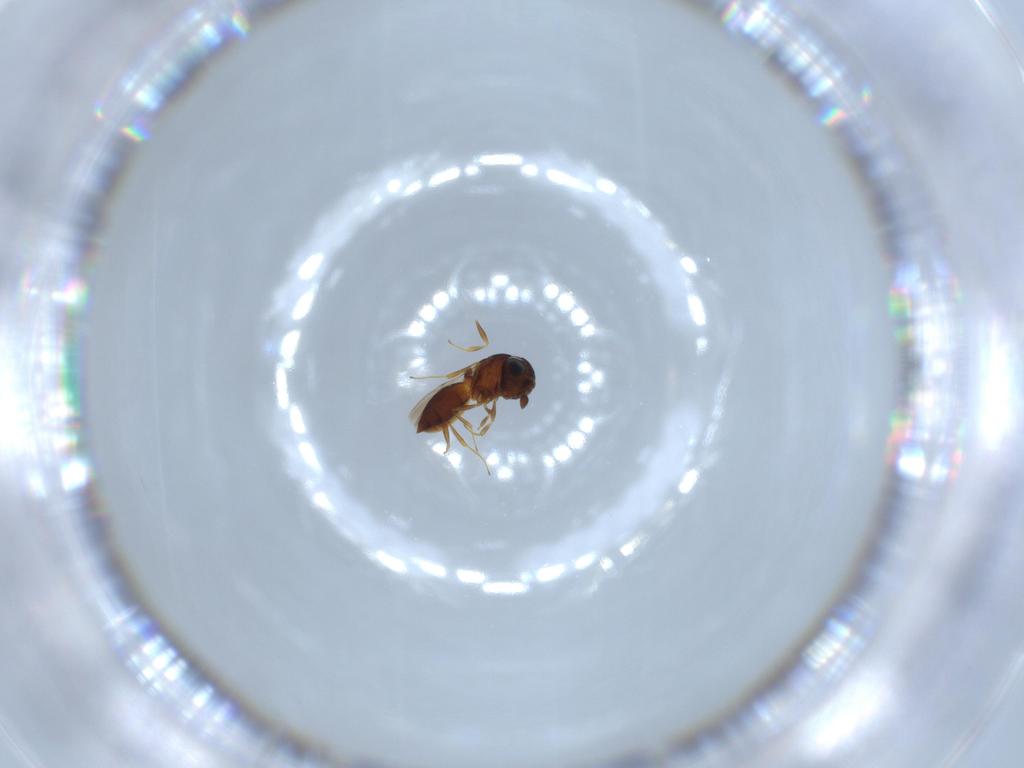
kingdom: Animalia
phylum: Arthropoda
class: Insecta
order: Hymenoptera
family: Scelionidae
